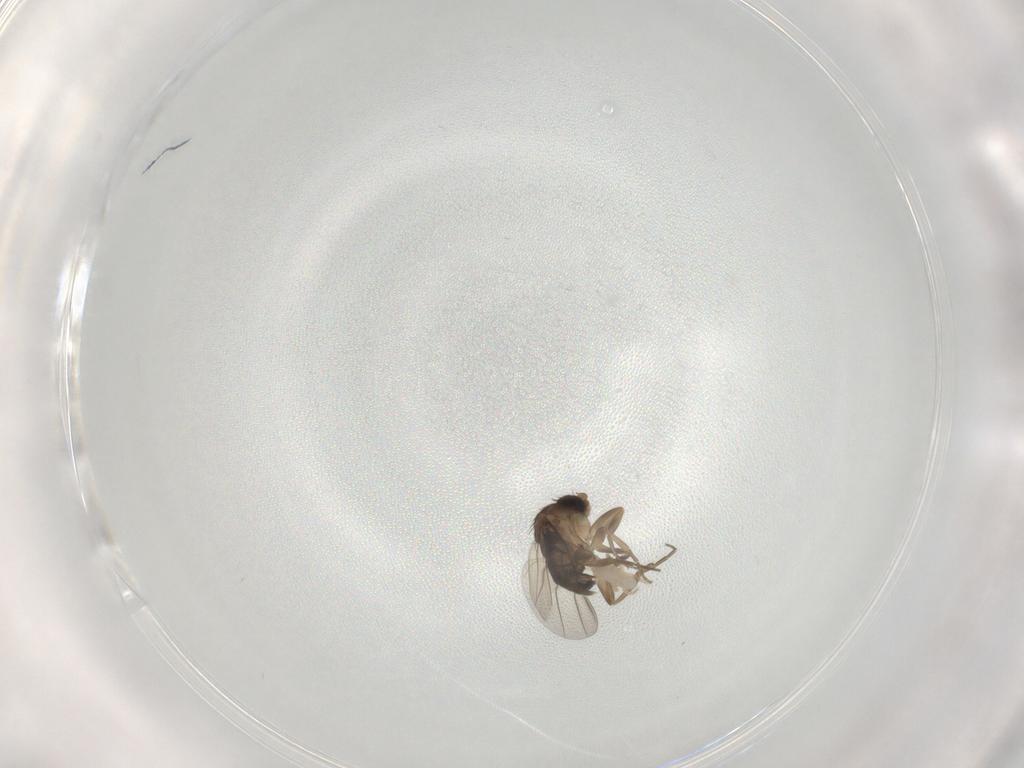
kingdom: Animalia
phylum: Arthropoda
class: Insecta
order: Diptera
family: Phoridae
